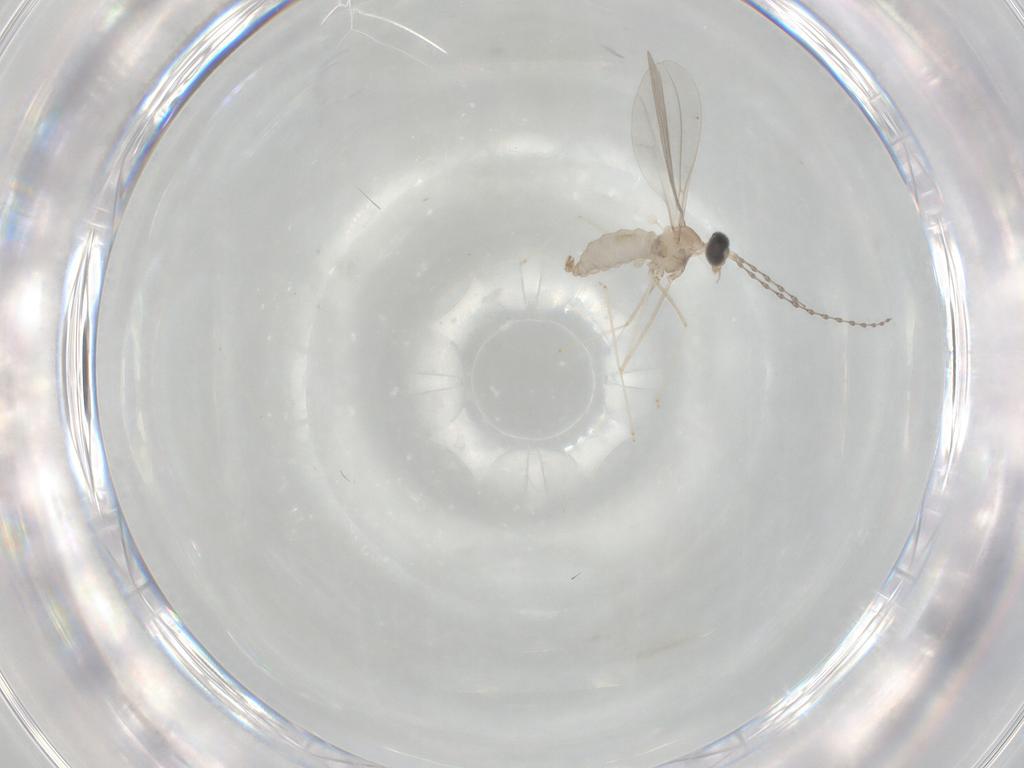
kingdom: Animalia
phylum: Arthropoda
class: Insecta
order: Diptera
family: Cecidomyiidae
